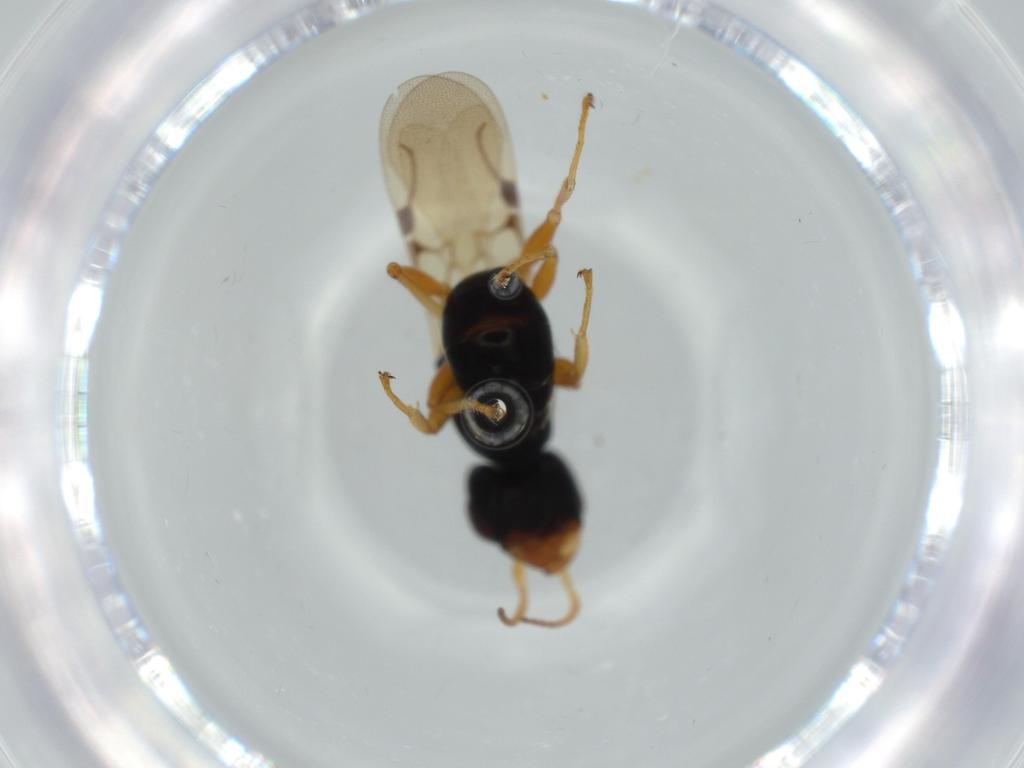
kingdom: Animalia
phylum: Arthropoda
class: Insecta
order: Hymenoptera
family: Bethylidae
